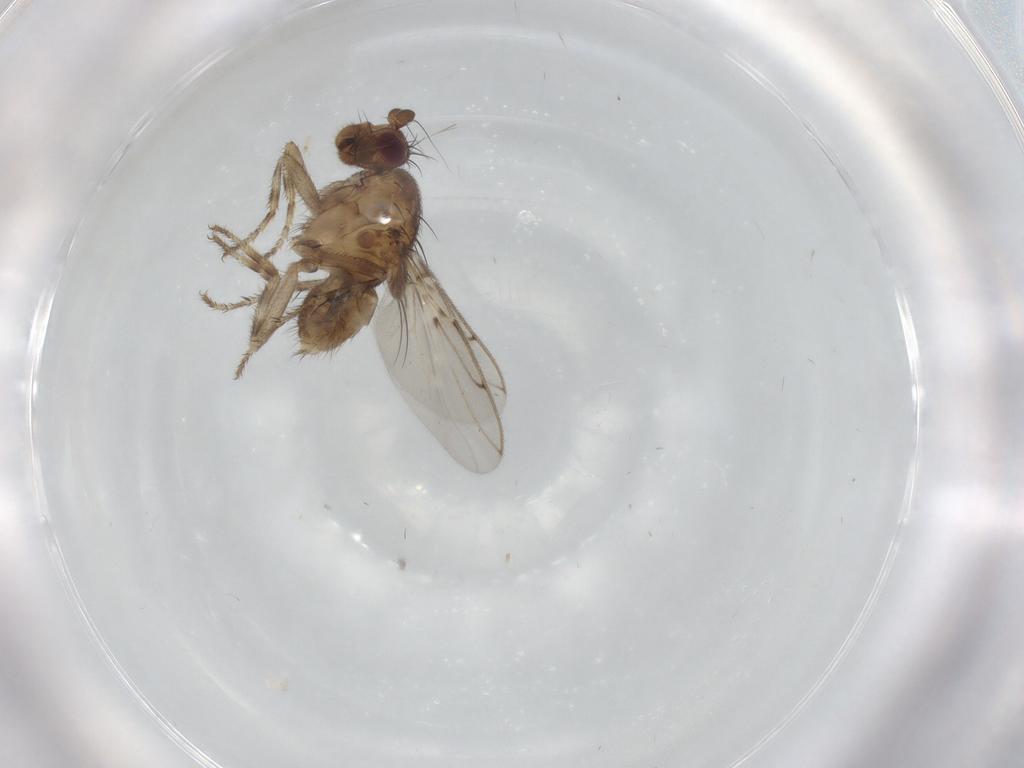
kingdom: Animalia
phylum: Arthropoda
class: Insecta
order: Diptera
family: Sphaeroceridae
